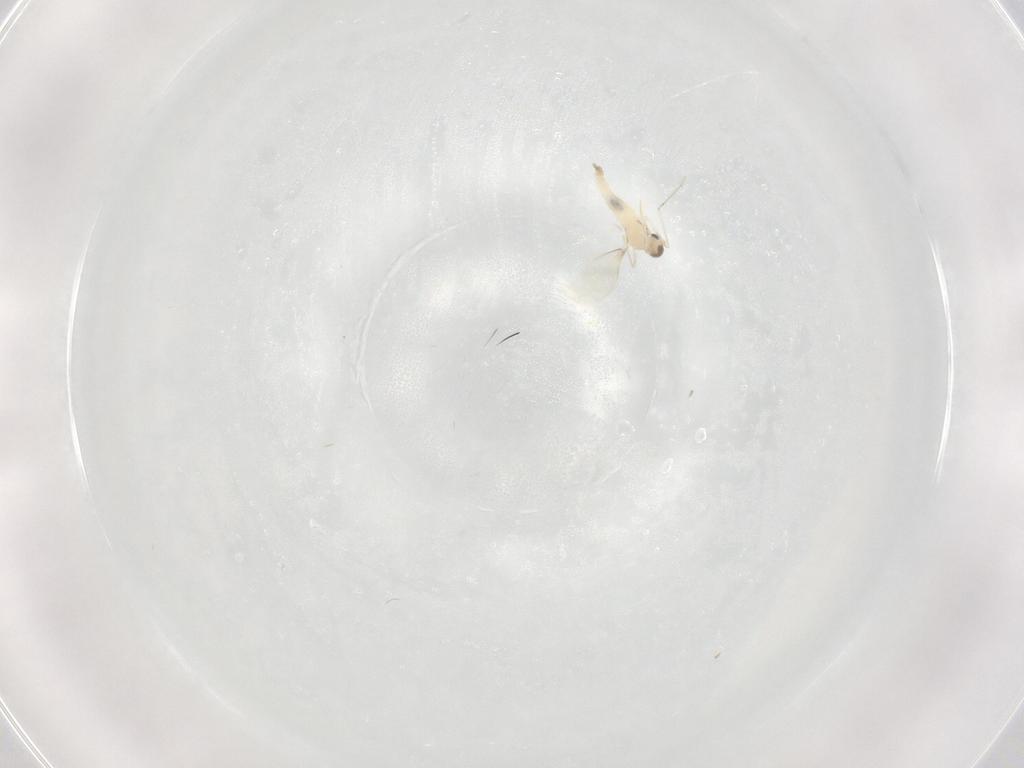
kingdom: Animalia
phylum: Arthropoda
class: Insecta
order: Diptera
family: Cecidomyiidae
